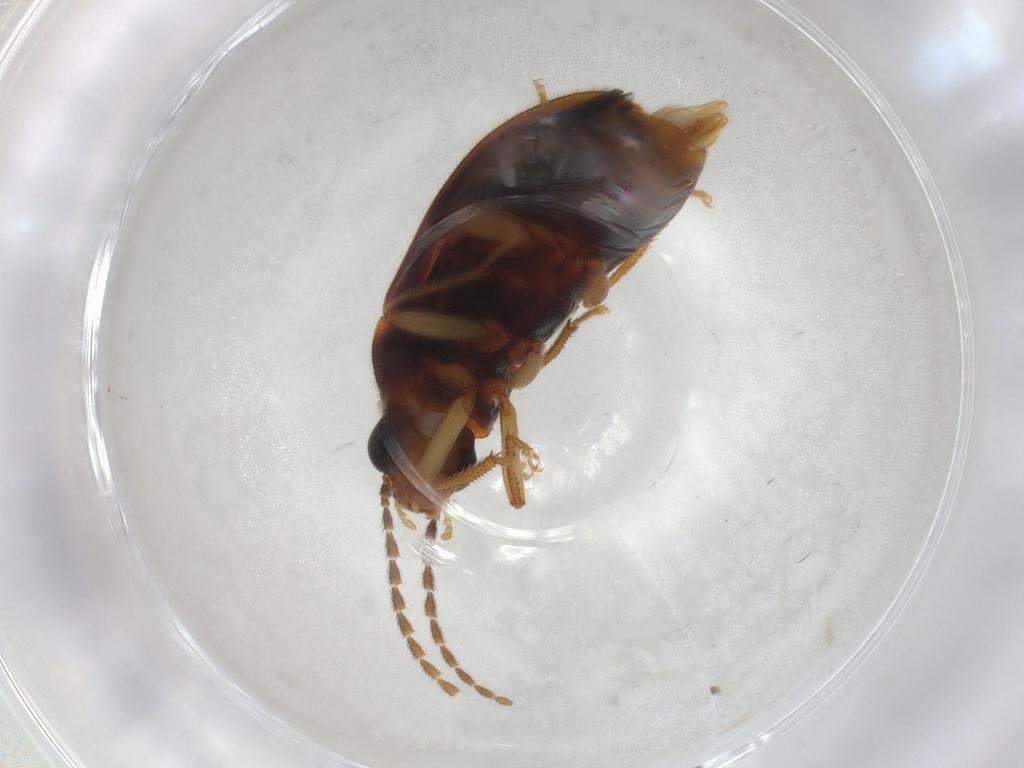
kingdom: Animalia
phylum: Arthropoda
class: Insecta
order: Coleoptera
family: Ptilodactylidae
